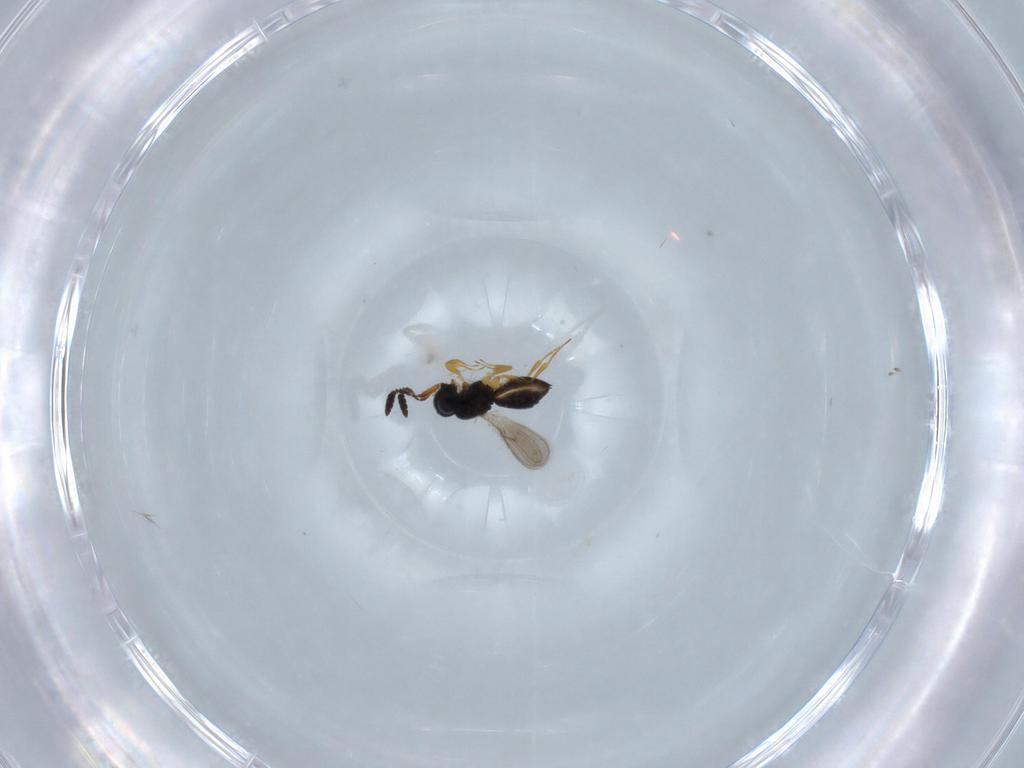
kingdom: Animalia
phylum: Arthropoda
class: Insecta
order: Hymenoptera
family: Scelionidae
